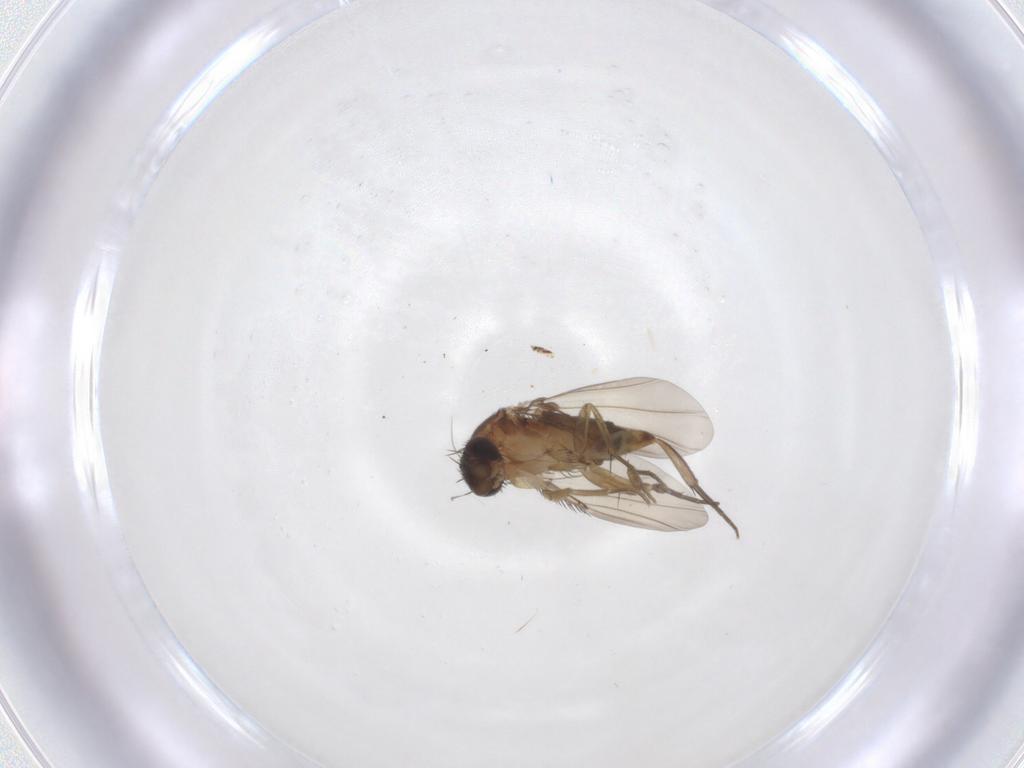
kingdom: Animalia
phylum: Arthropoda
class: Insecta
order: Diptera
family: Phoridae
